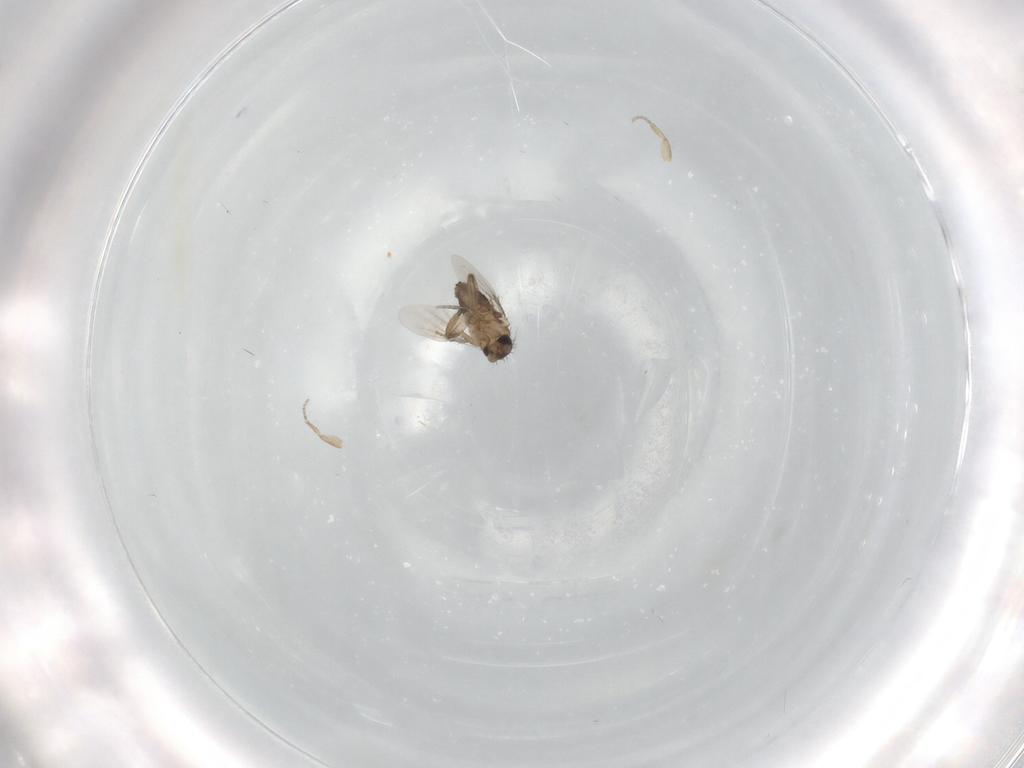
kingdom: Animalia
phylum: Arthropoda
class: Insecta
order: Diptera
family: Phoridae
